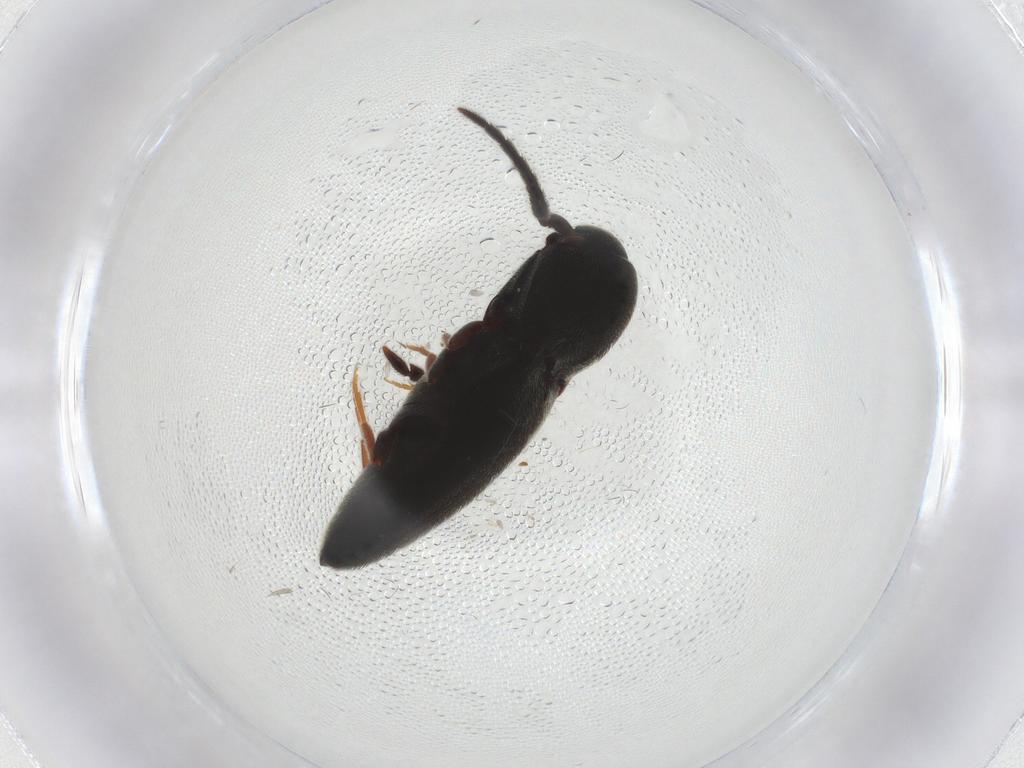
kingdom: Animalia
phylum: Arthropoda
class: Insecta
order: Coleoptera
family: Eucnemidae
